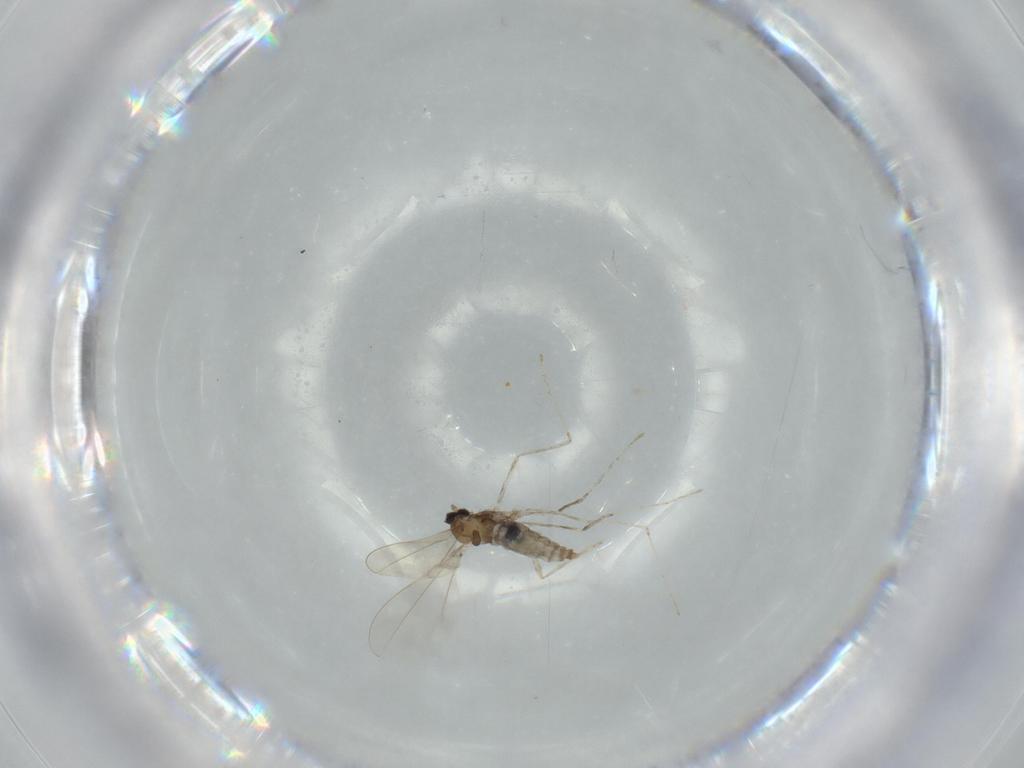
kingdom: Animalia
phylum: Arthropoda
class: Insecta
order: Diptera
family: Cecidomyiidae
